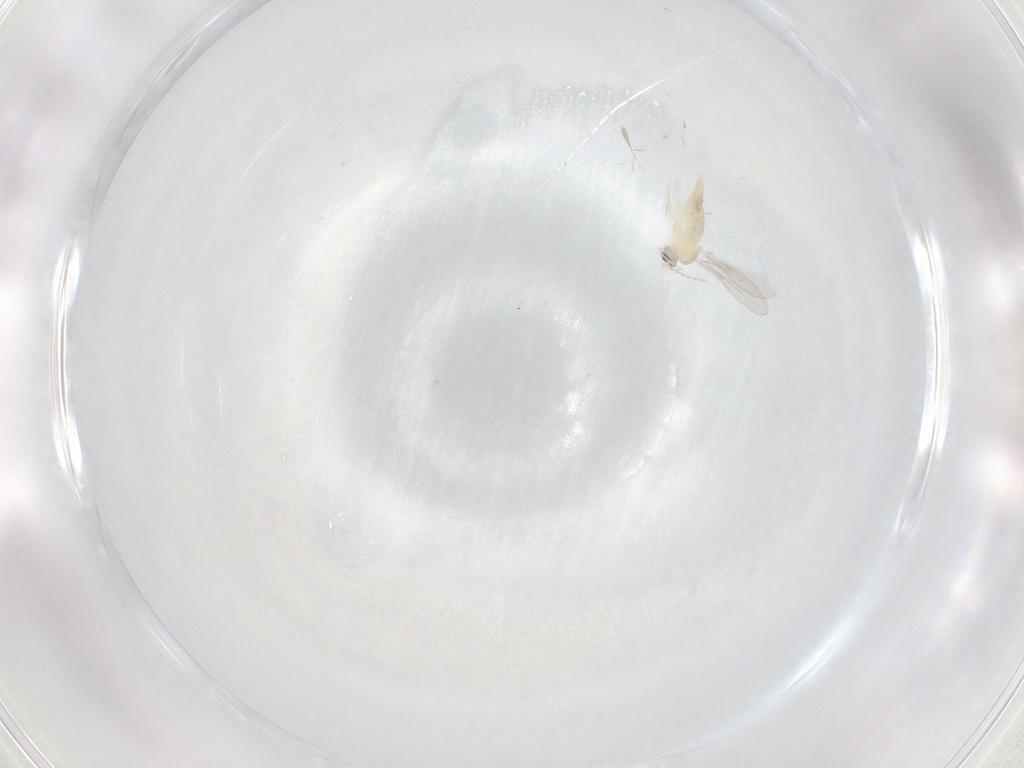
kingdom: Animalia
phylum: Arthropoda
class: Insecta
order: Diptera
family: Cecidomyiidae
